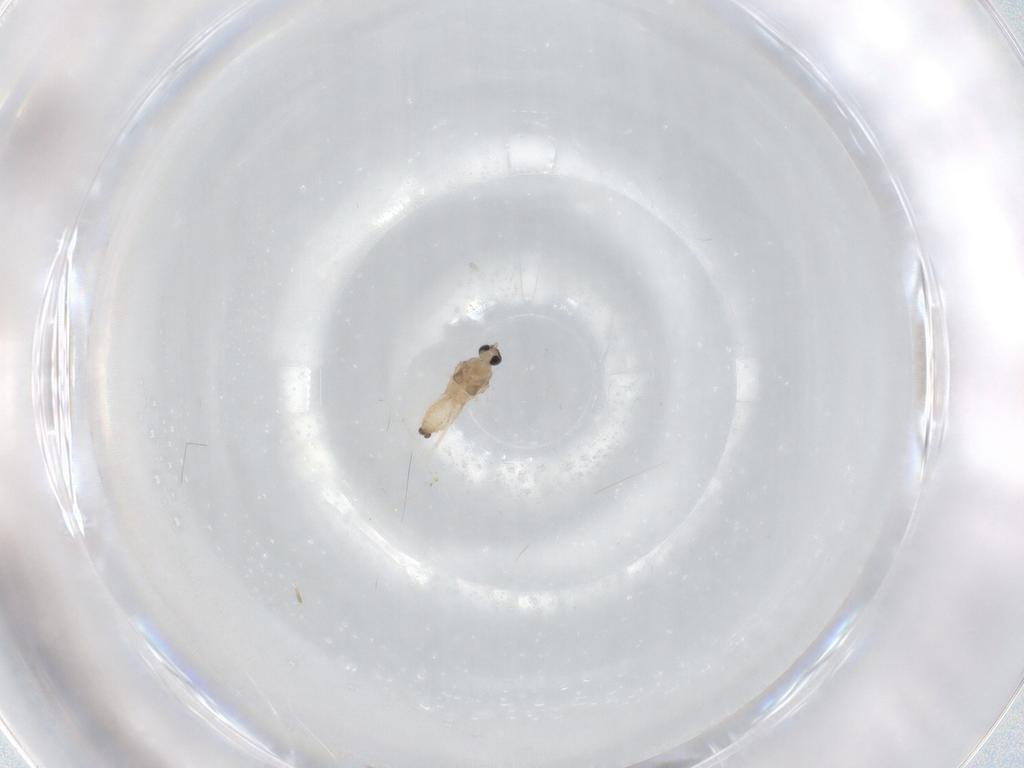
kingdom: Animalia
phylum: Arthropoda
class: Insecta
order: Diptera
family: Cecidomyiidae
